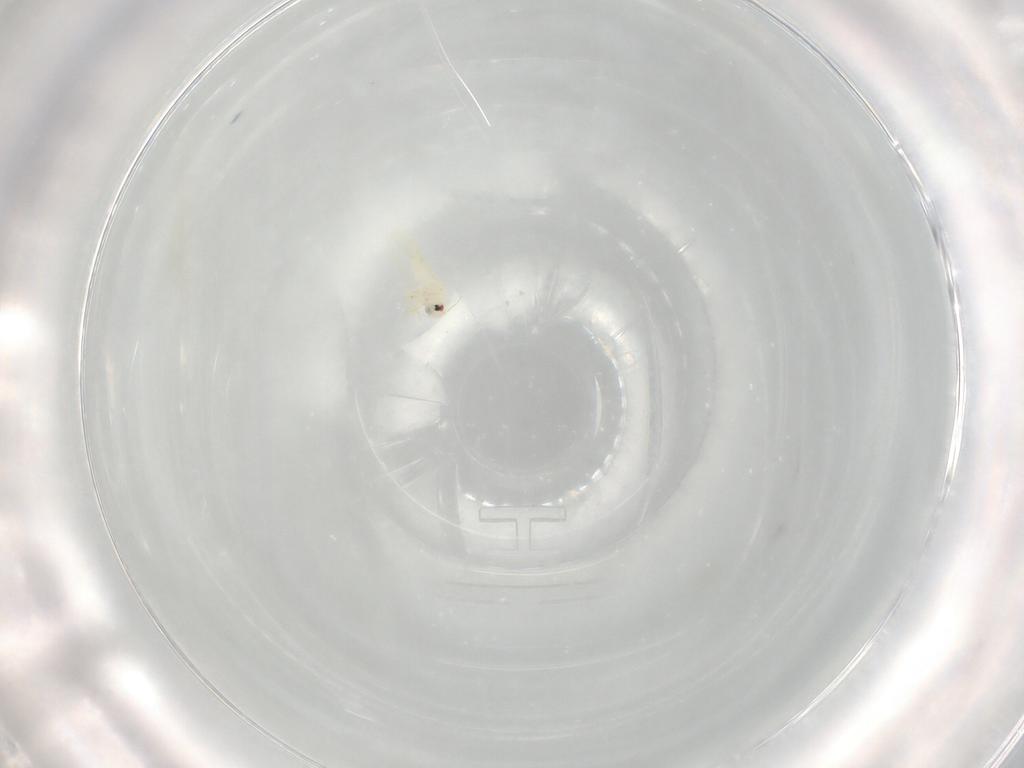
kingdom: Animalia
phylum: Arthropoda
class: Insecta
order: Hemiptera
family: Aleyrodidae
